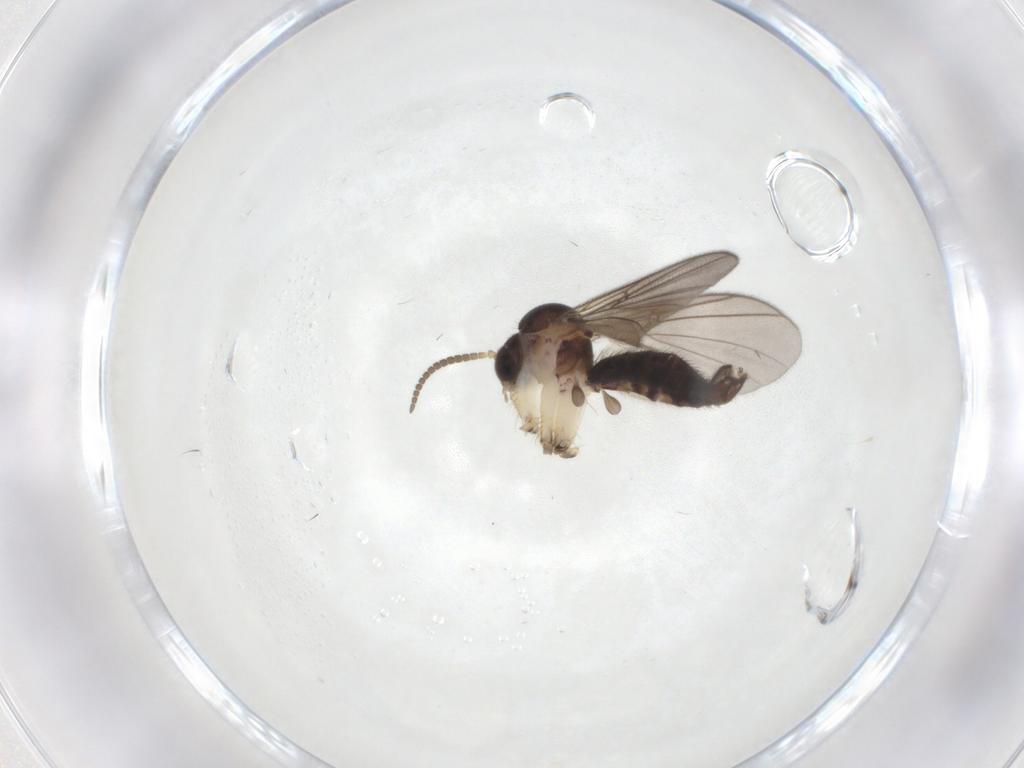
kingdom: Animalia
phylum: Arthropoda
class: Insecta
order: Diptera
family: Mycetophilidae
